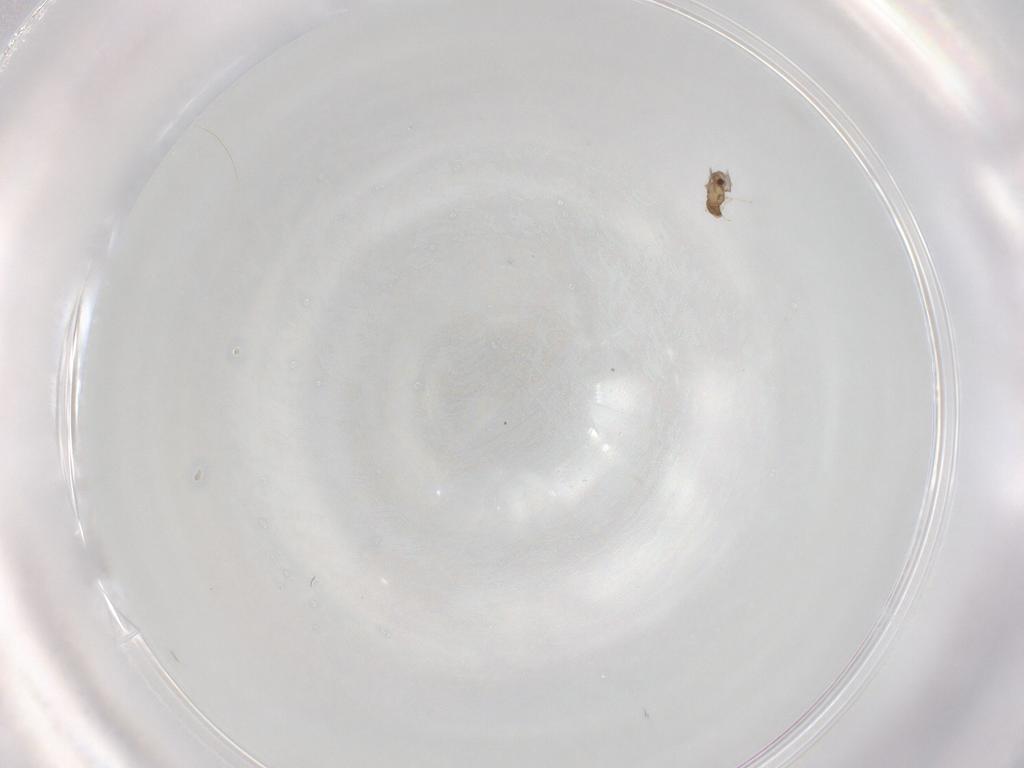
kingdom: Animalia
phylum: Arthropoda
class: Insecta
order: Hymenoptera
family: Aphelinidae
